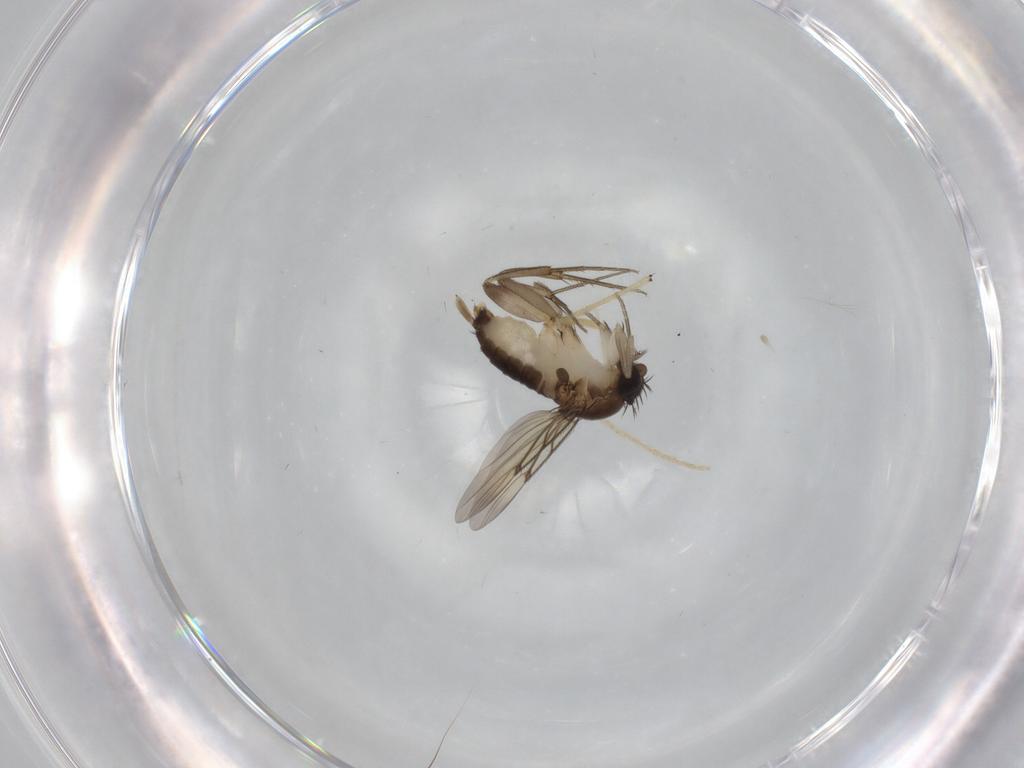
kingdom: Animalia
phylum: Arthropoda
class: Insecta
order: Diptera
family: Phoridae
